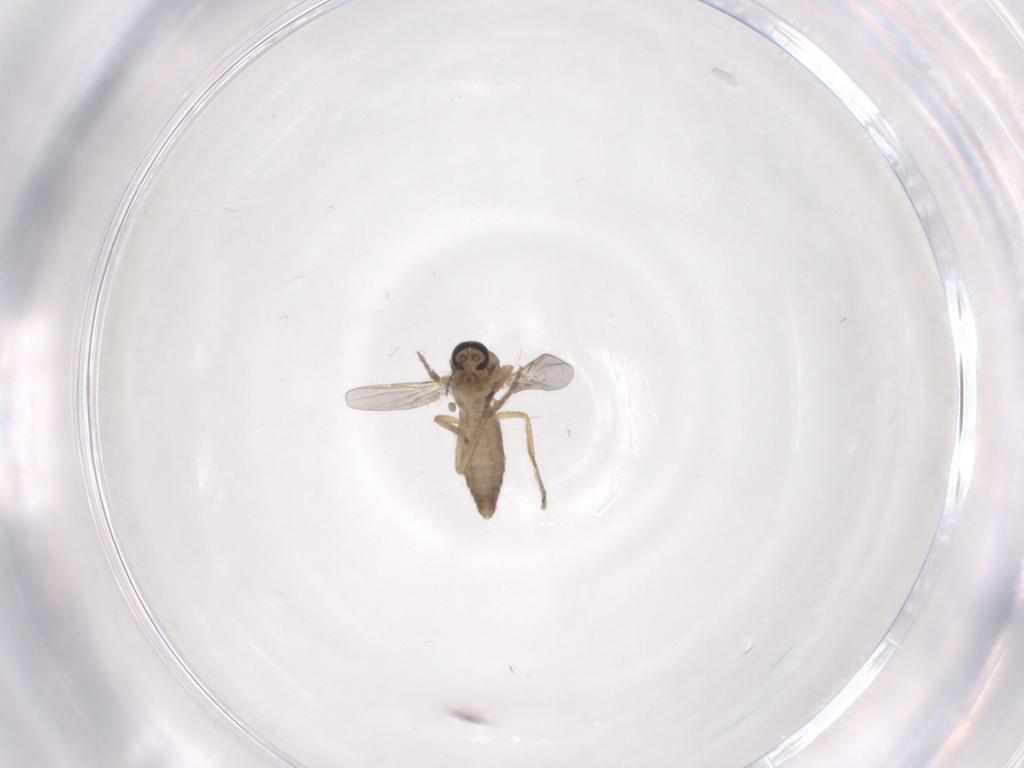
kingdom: Animalia
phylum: Arthropoda
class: Insecta
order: Diptera
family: Ceratopogonidae
